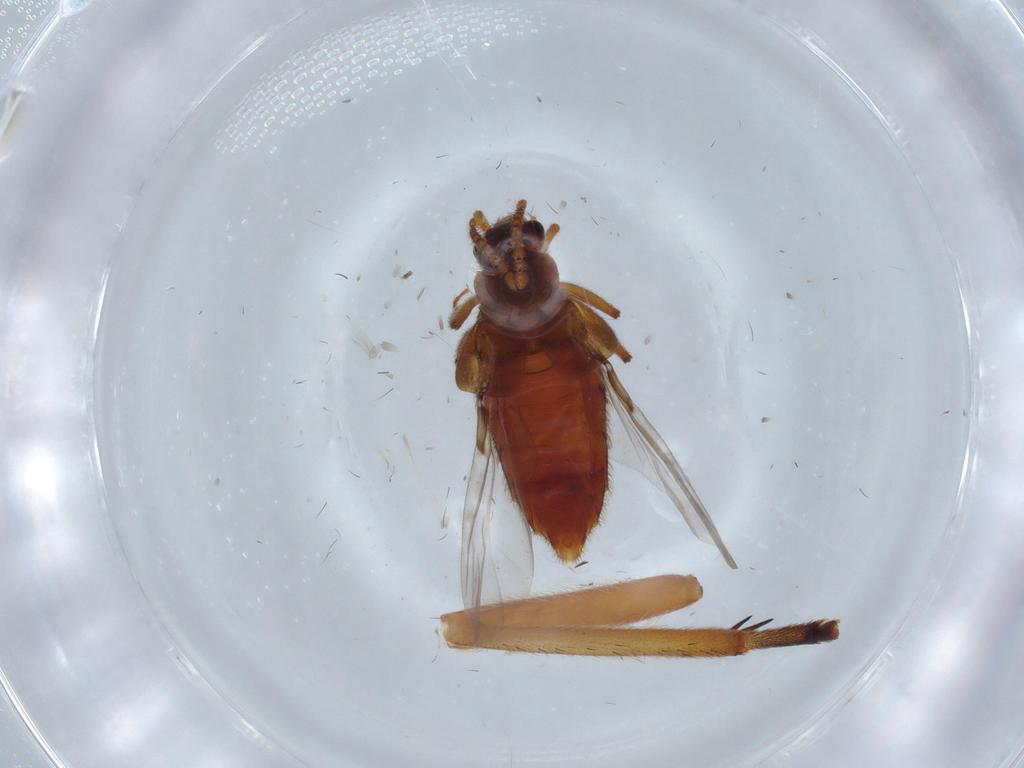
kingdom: Animalia
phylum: Arthropoda
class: Insecta
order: Coleoptera
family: Staphylinidae
